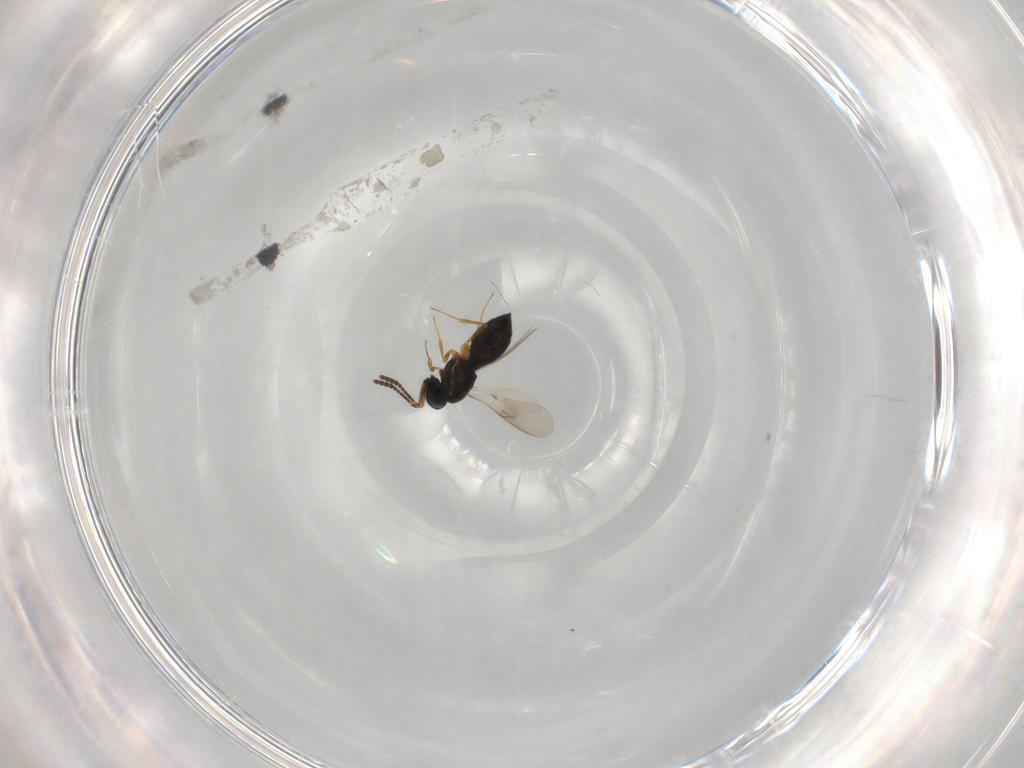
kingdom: Animalia
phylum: Arthropoda
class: Insecta
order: Hymenoptera
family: Scelionidae
